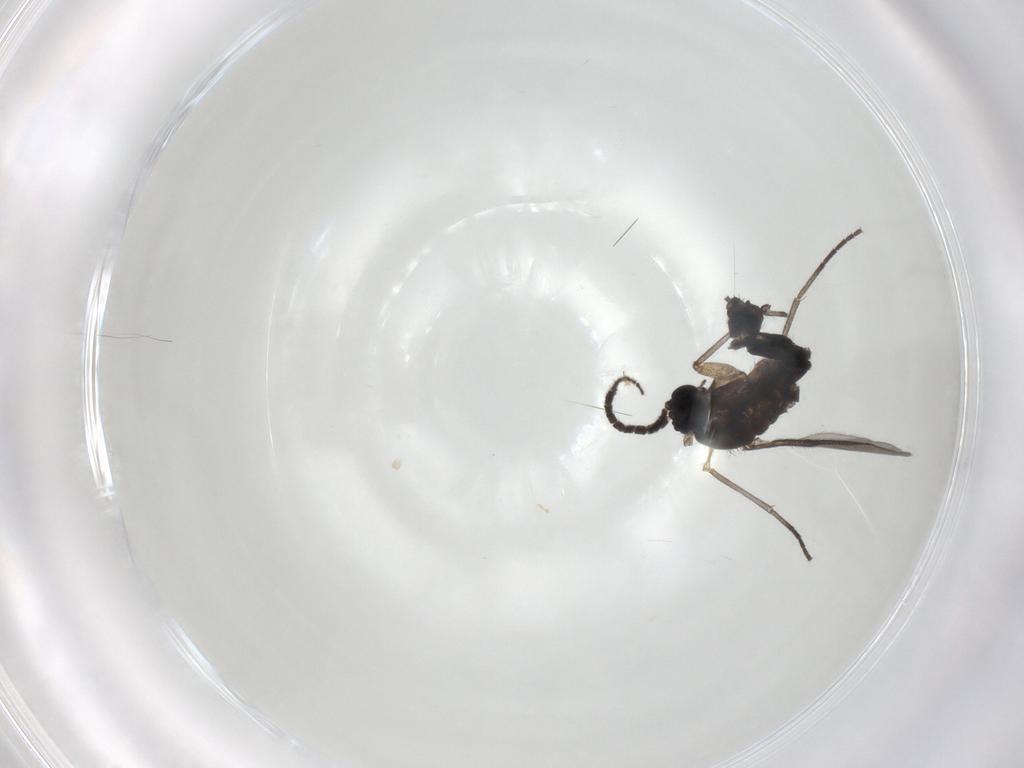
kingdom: Animalia
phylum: Arthropoda
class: Insecta
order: Diptera
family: Sciaridae
